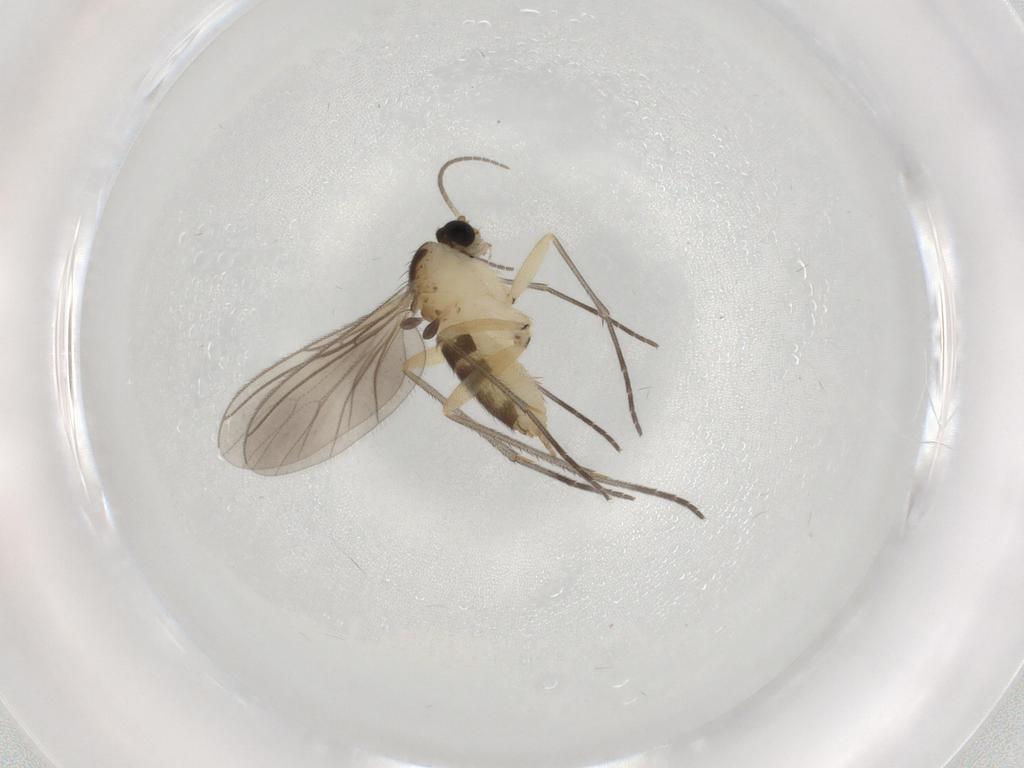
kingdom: Animalia
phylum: Arthropoda
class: Insecta
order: Diptera
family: Sciaridae
